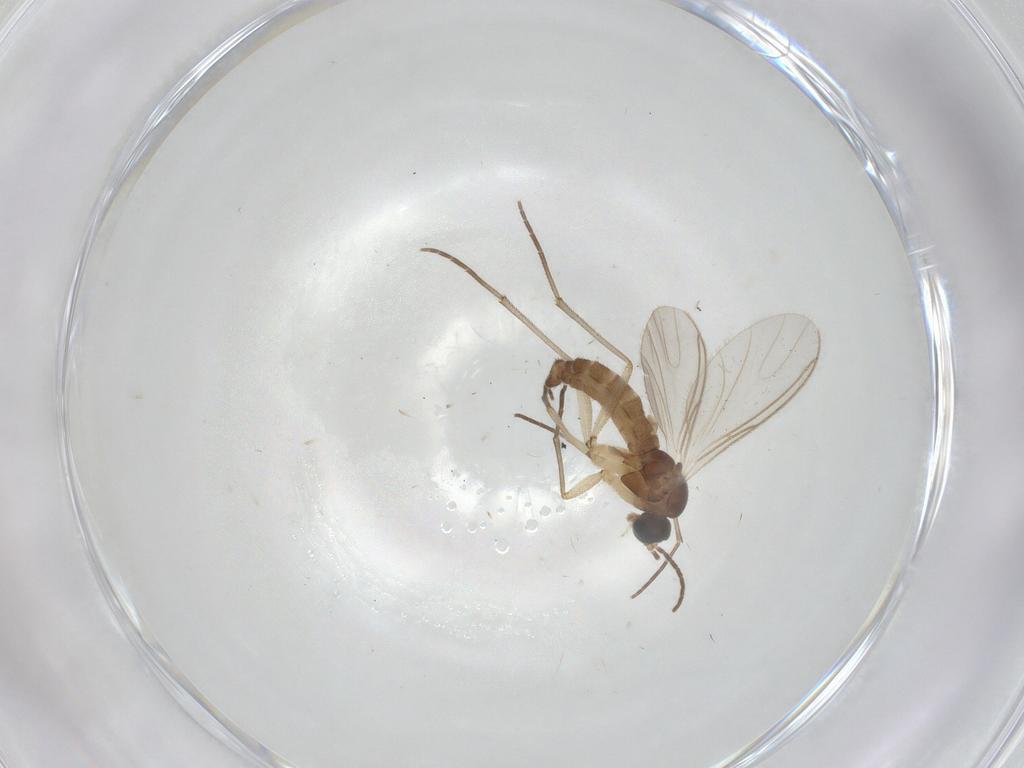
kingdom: Animalia
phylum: Arthropoda
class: Insecta
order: Diptera
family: Sciaridae
